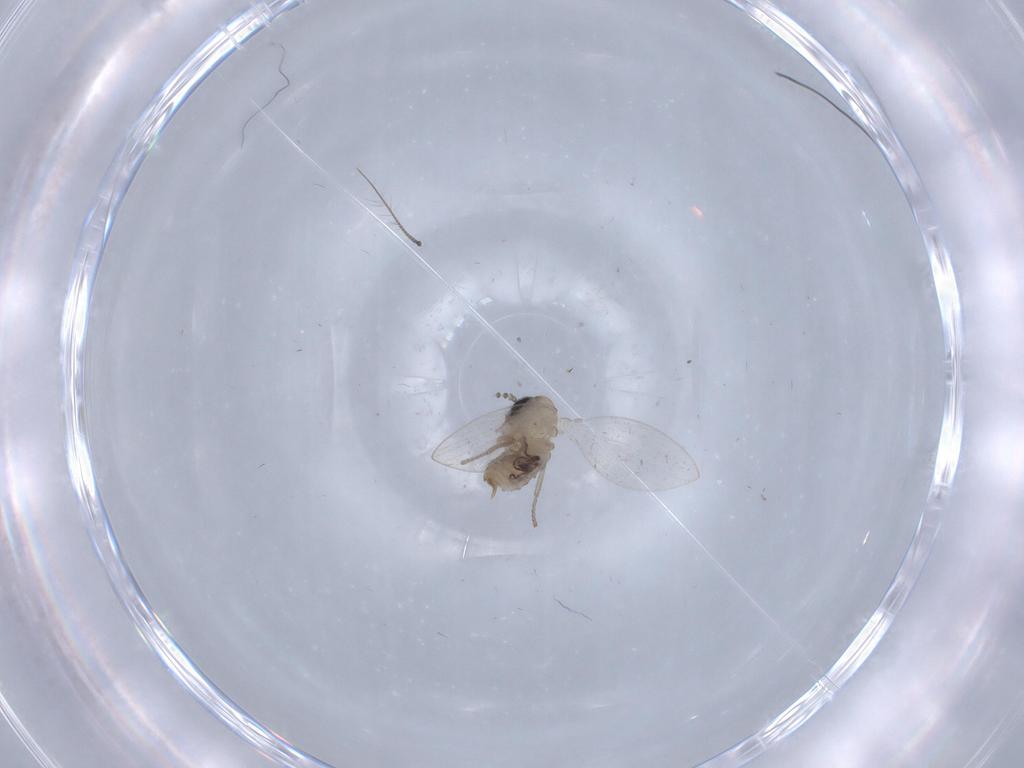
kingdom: Animalia
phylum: Arthropoda
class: Insecta
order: Diptera
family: Psychodidae
